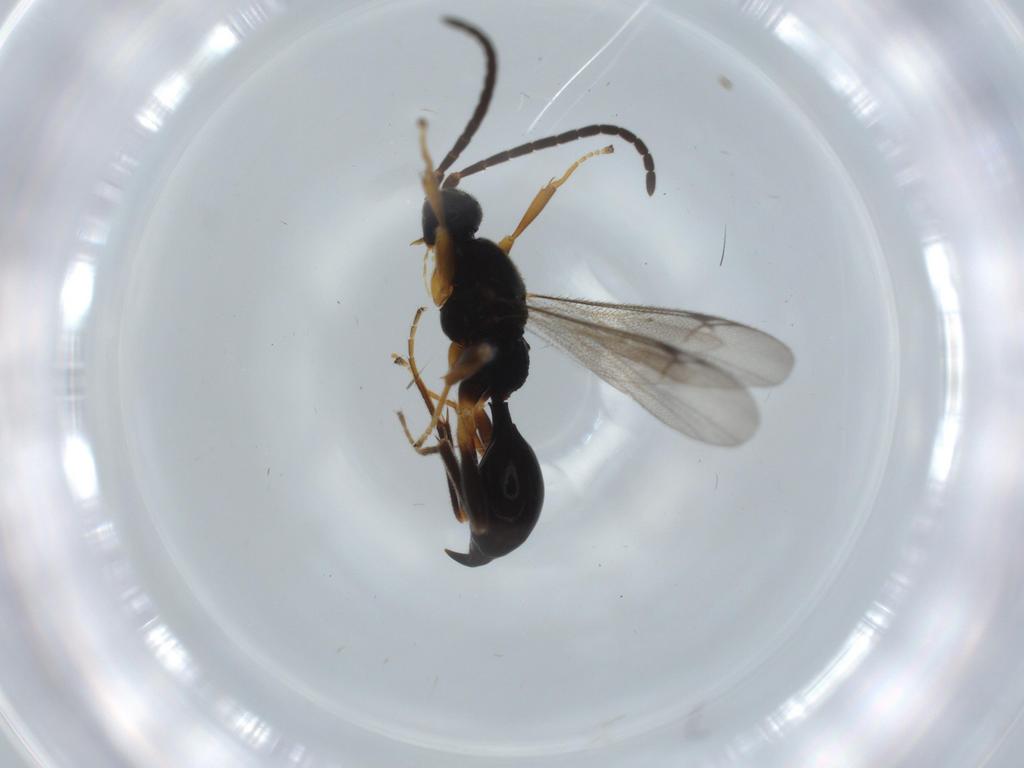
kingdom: Animalia
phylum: Arthropoda
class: Insecta
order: Hymenoptera
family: Proctotrupidae
